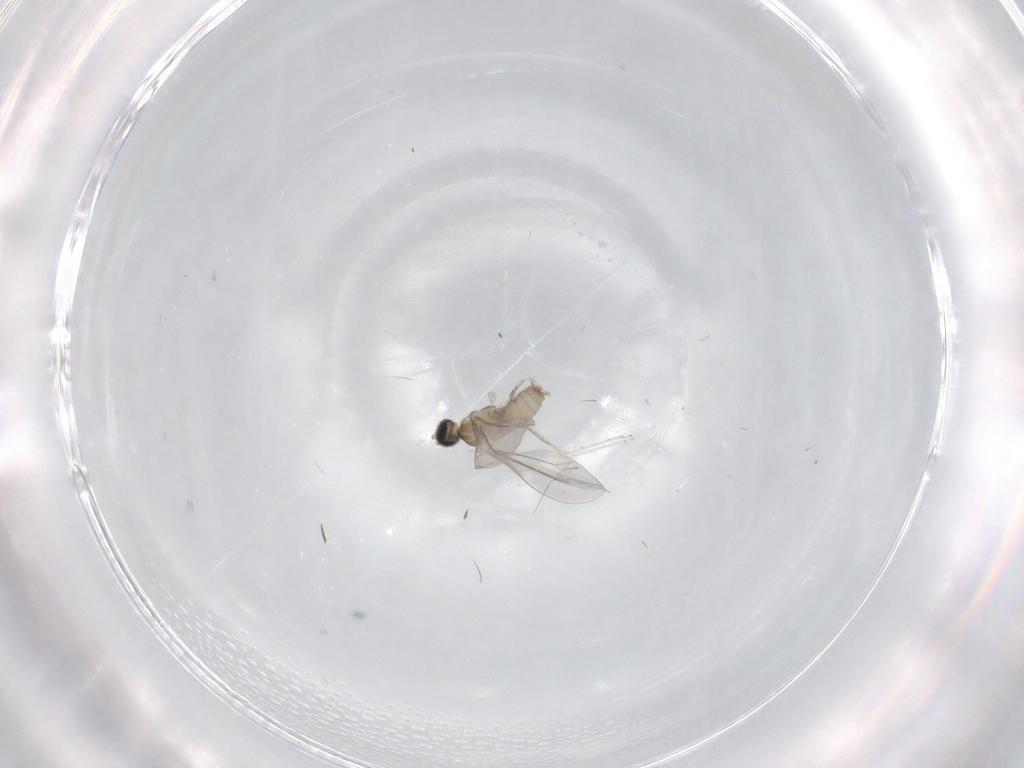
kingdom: Animalia
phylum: Arthropoda
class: Insecta
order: Diptera
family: Cecidomyiidae
